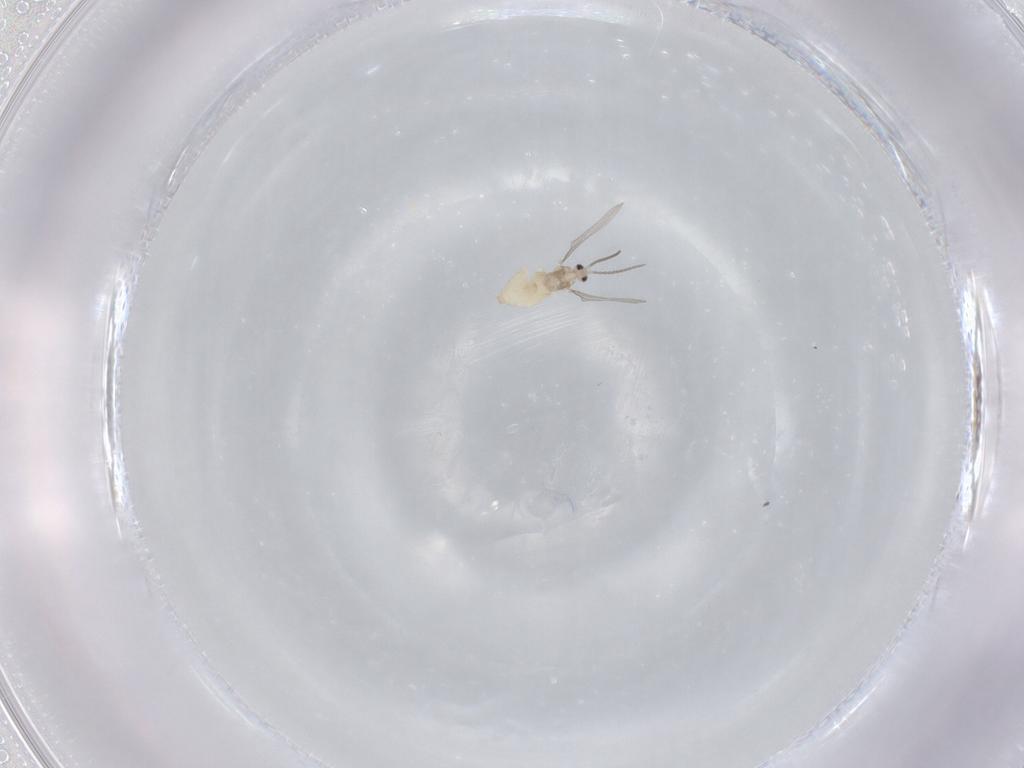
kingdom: Animalia
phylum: Arthropoda
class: Insecta
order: Diptera
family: Cecidomyiidae
